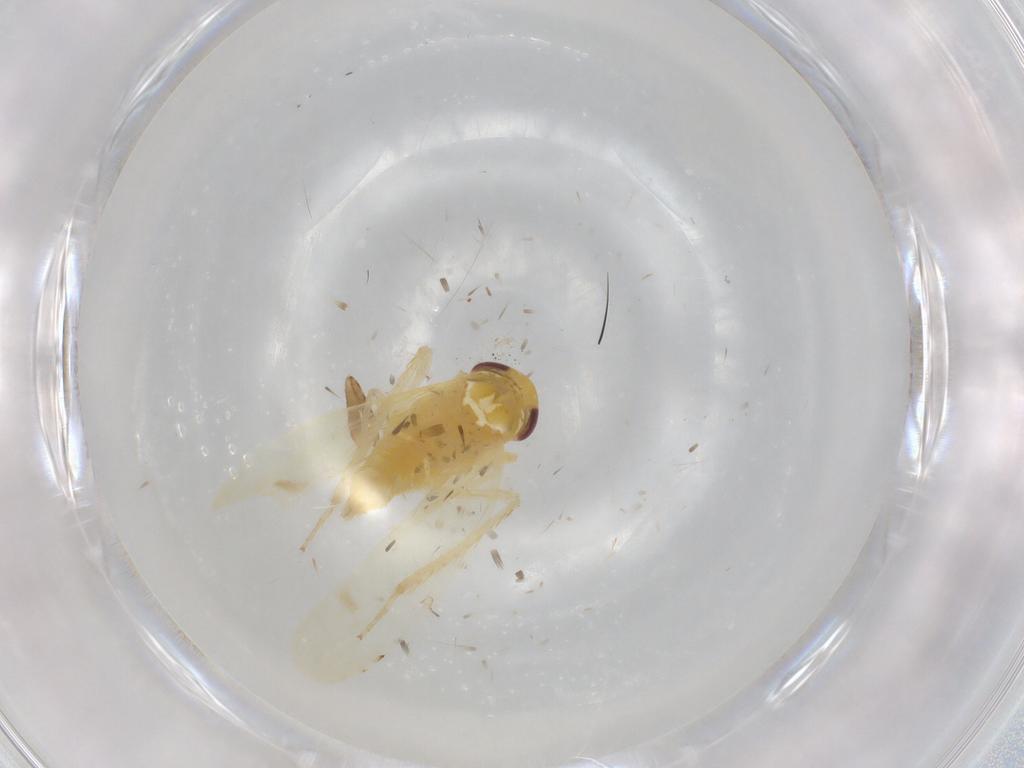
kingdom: Animalia
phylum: Arthropoda
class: Insecta
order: Hemiptera
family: Cicadellidae
